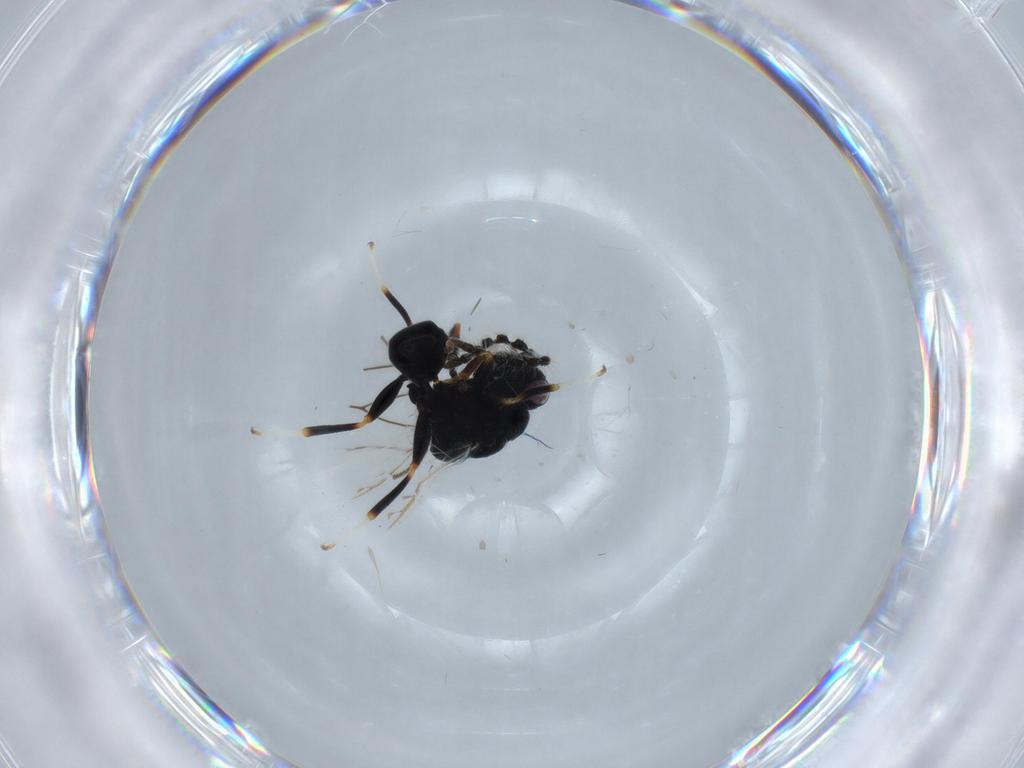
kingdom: Animalia
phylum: Arthropoda
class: Insecta
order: Hymenoptera
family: Eurytomidae
